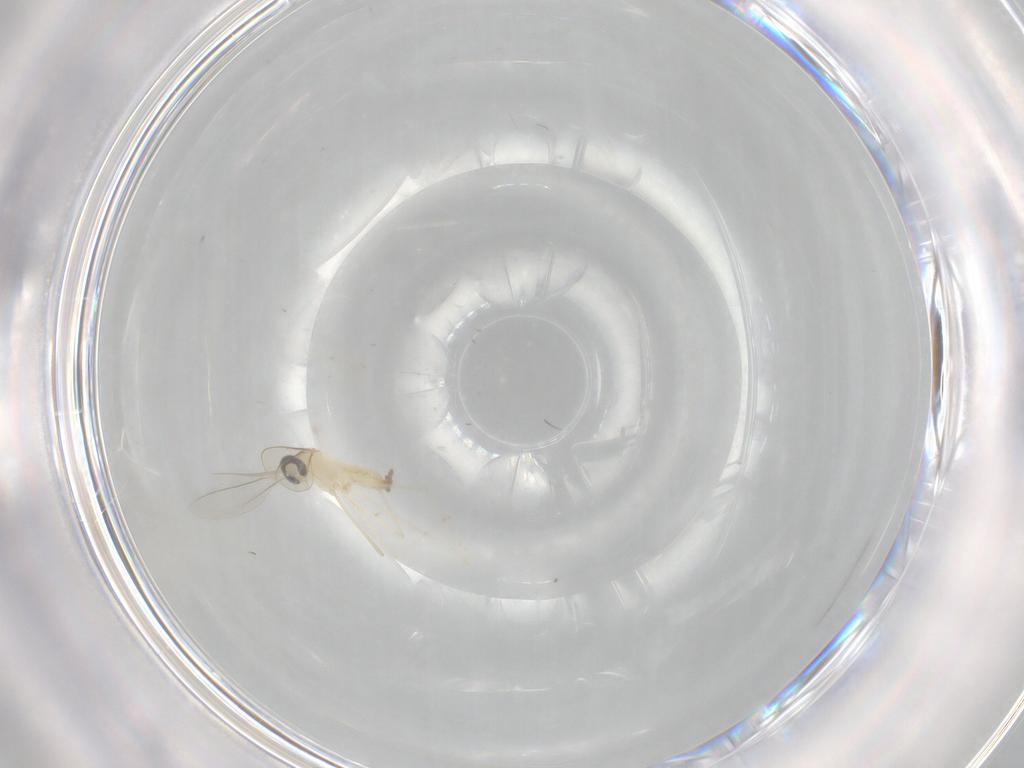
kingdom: Animalia
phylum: Arthropoda
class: Insecta
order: Diptera
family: Cecidomyiidae
